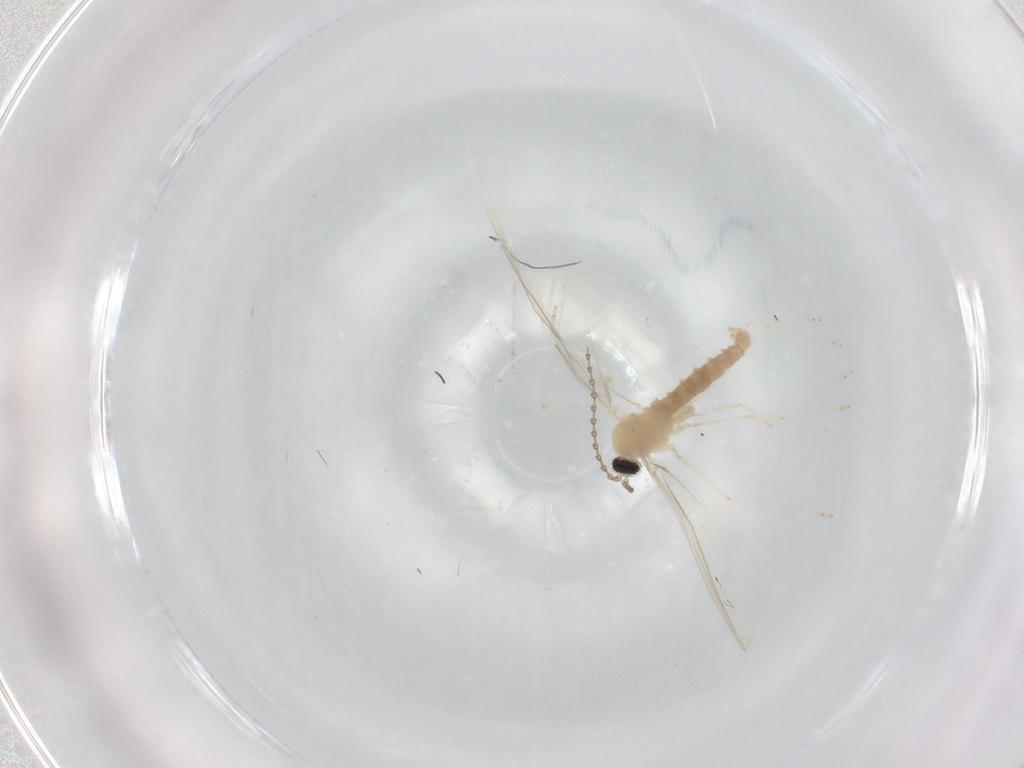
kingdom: Animalia
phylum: Arthropoda
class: Insecta
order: Diptera
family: Cecidomyiidae
